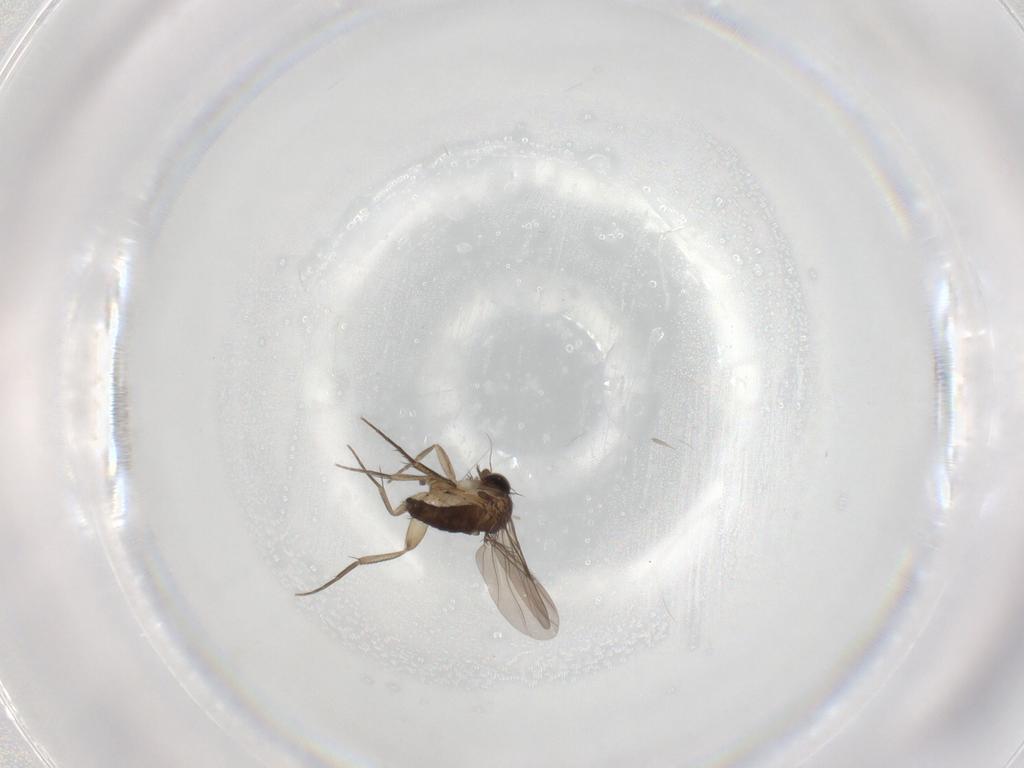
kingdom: Animalia
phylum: Arthropoda
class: Insecta
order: Diptera
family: Phoridae
